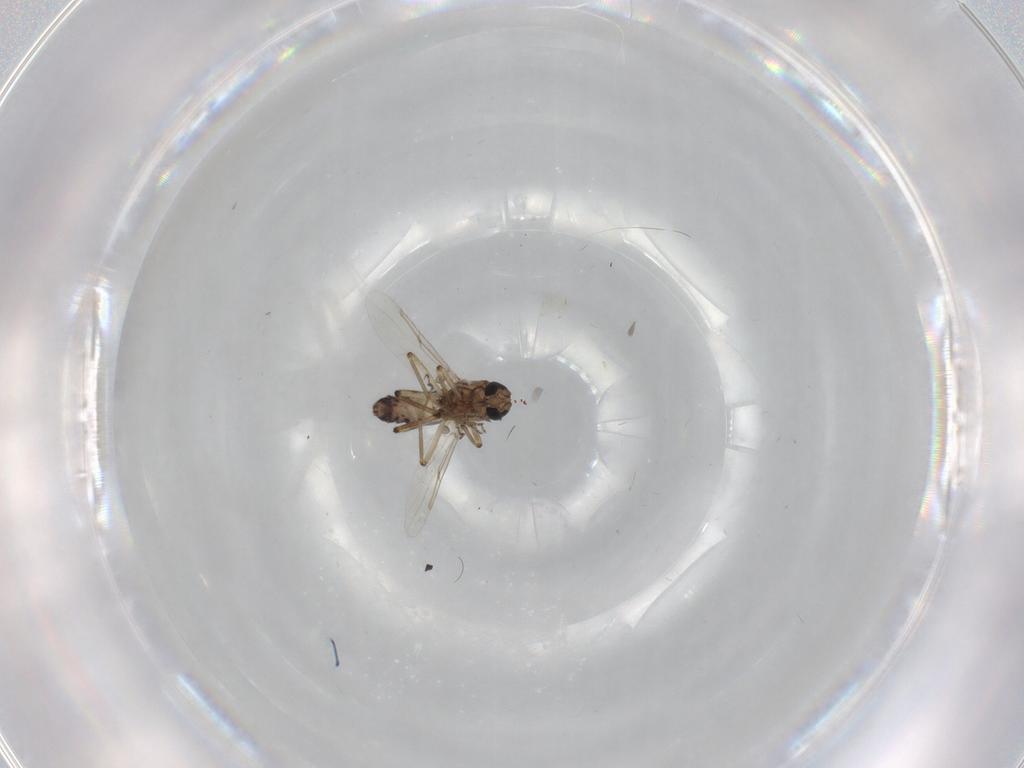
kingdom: Animalia
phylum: Arthropoda
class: Insecta
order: Diptera
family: Ceratopogonidae
